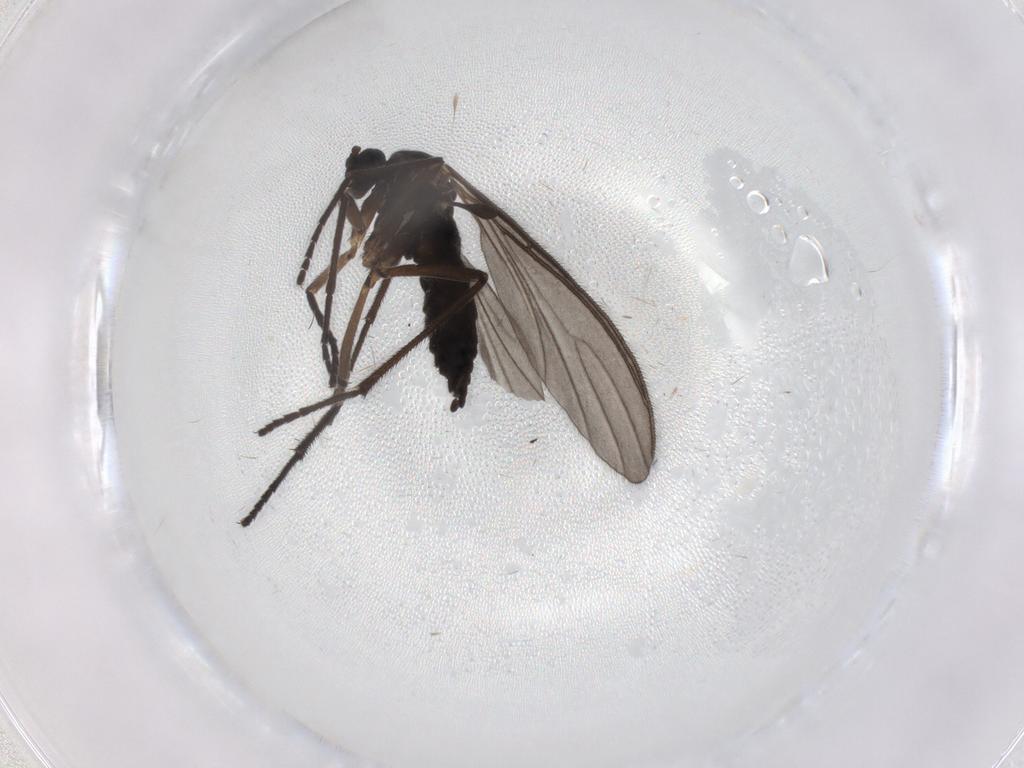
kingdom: Animalia
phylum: Arthropoda
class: Insecta
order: Diptera
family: Sciaridae
